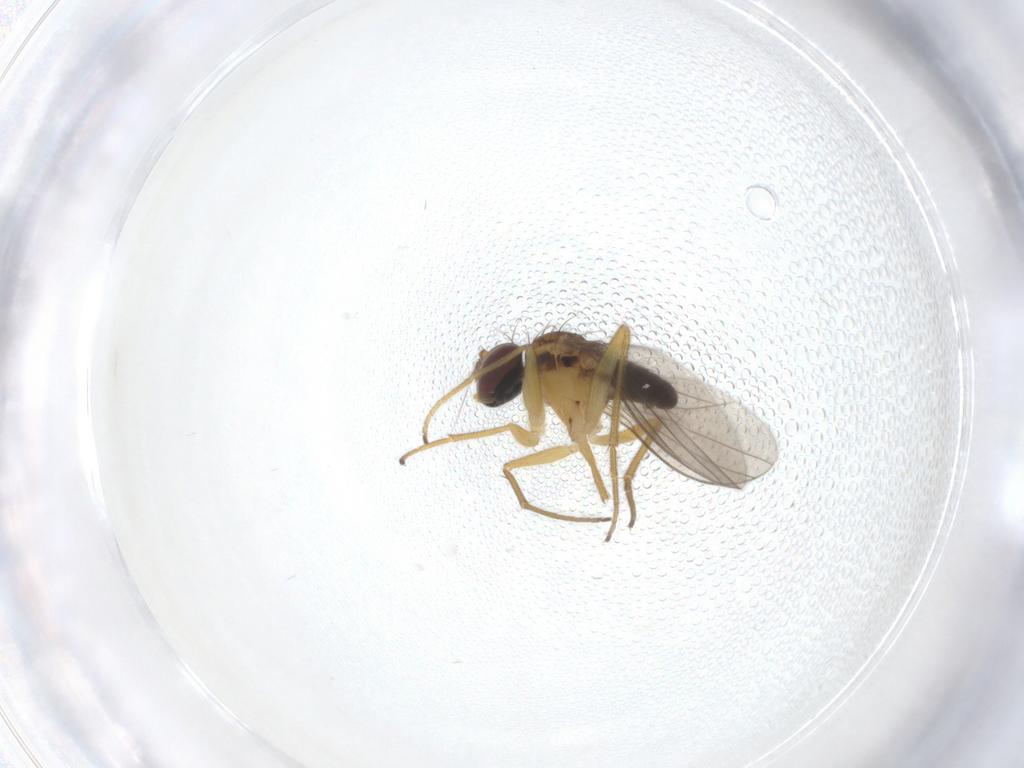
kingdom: Animalia
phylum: Arthropoda
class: Insecta
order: Diptera
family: Dolichopodidae
